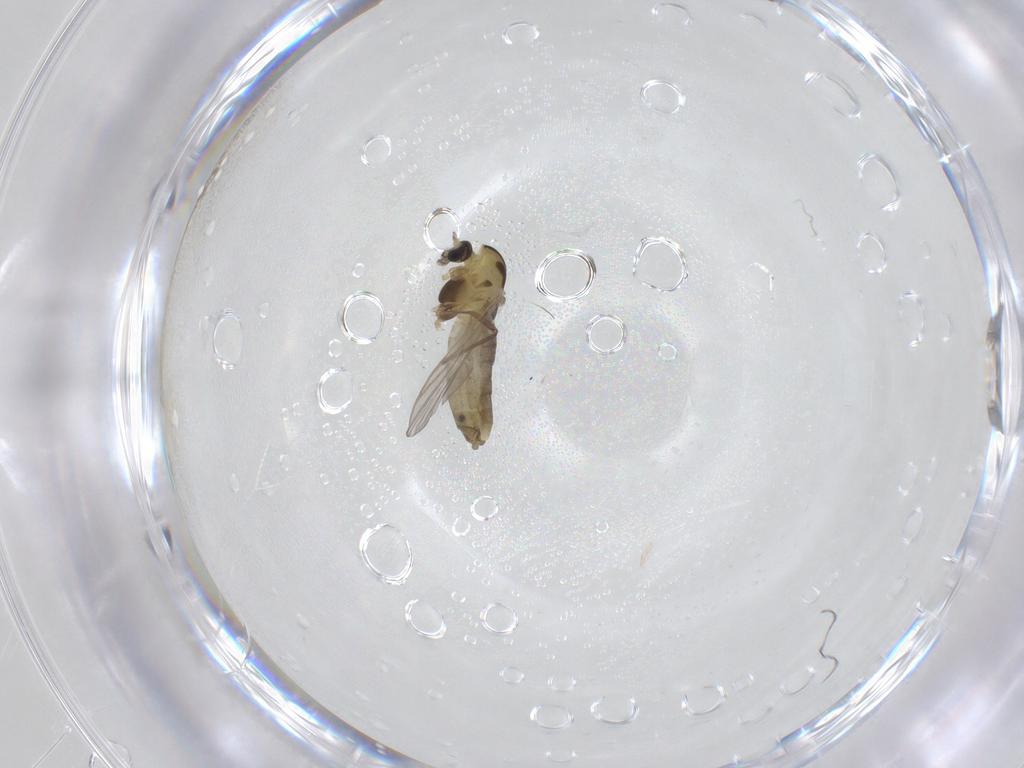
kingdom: Animalia
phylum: Arthropoda
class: Insecta
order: Diptera
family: Chironomidae
